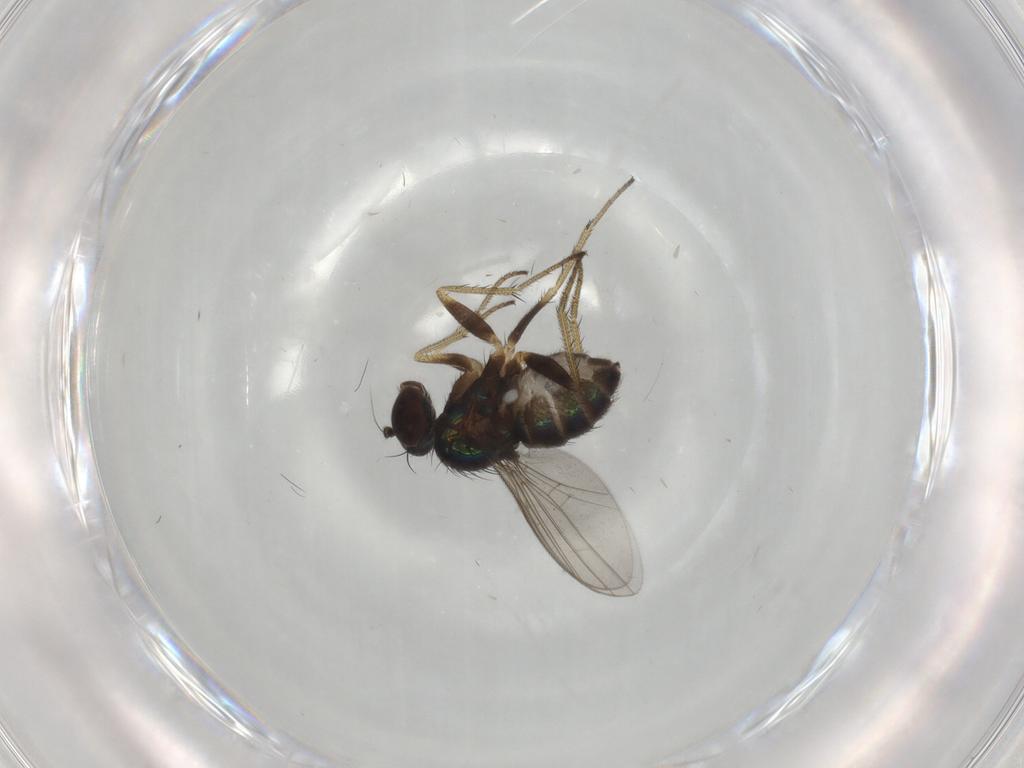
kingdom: Animalia
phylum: Arthropoda
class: Insecta
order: Diptera
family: Dolichopodidae
